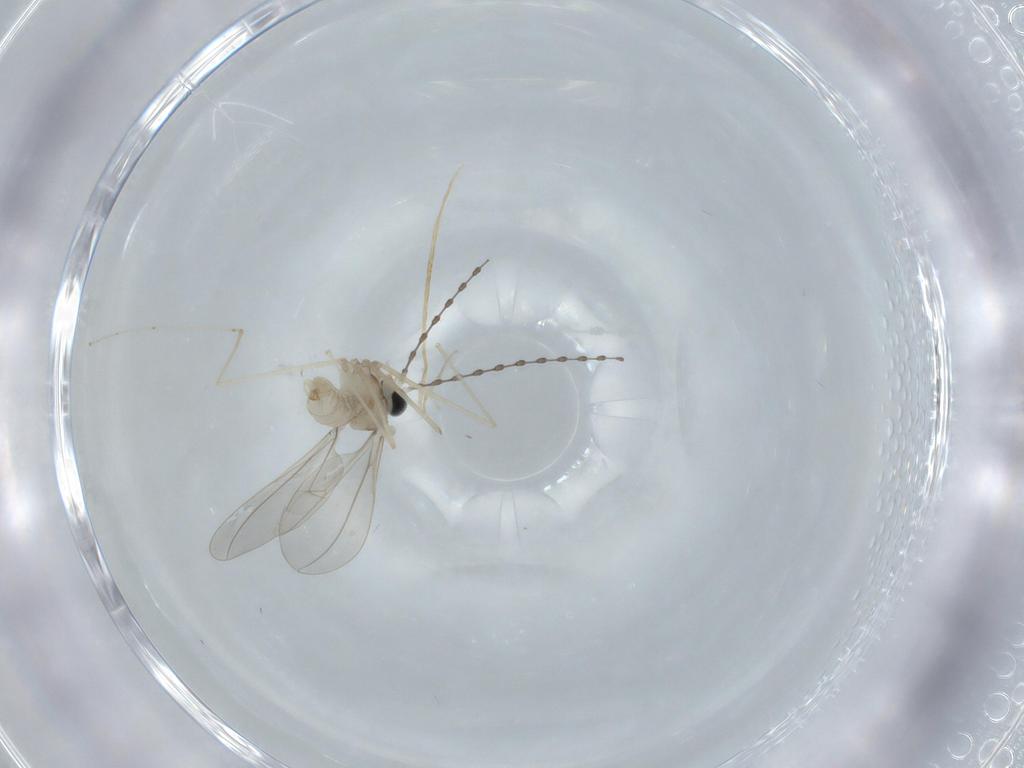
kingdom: Animalia
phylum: Arthropoda
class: Insecta
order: Diptera
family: Cecidomyiidae
